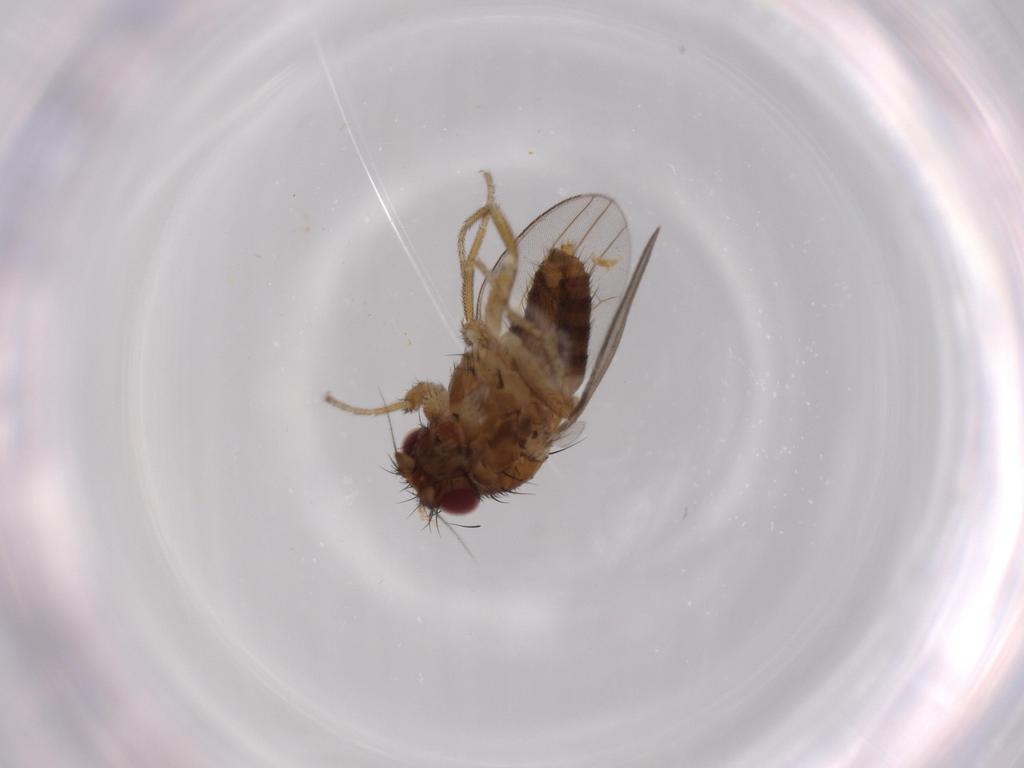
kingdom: Animalia
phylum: Arthropoda
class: Insecta
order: Diptera
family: Milichiidae
